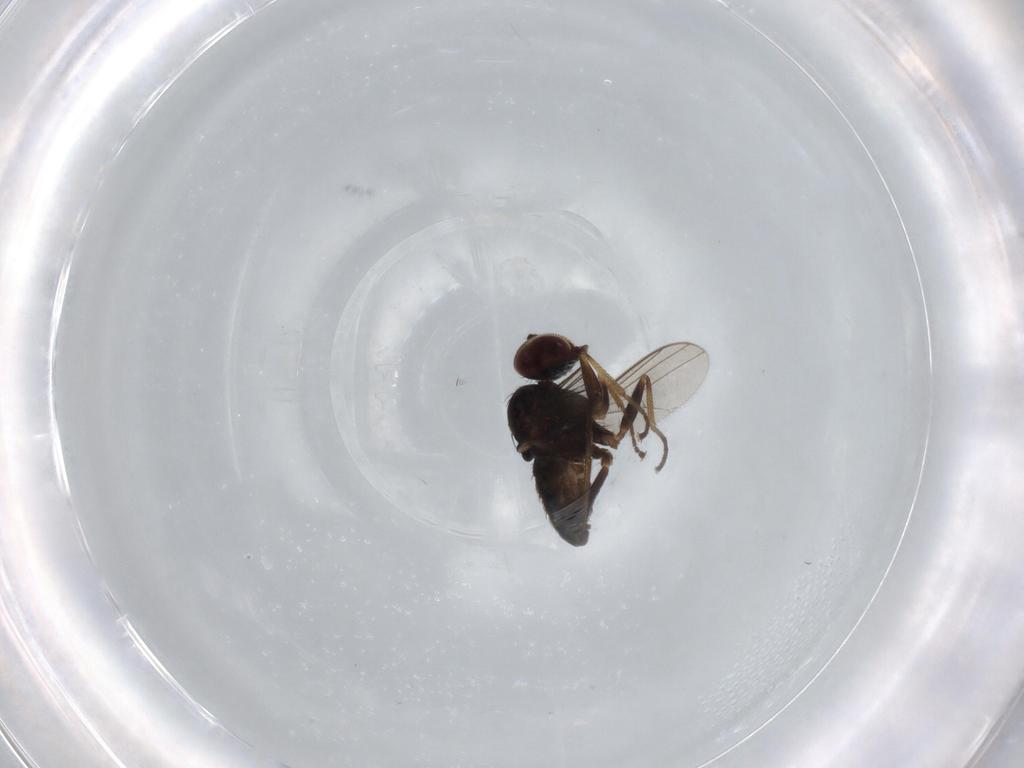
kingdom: Animalia
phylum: Arthropoda
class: Insecta
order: Diptera
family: Dolichopodidae
